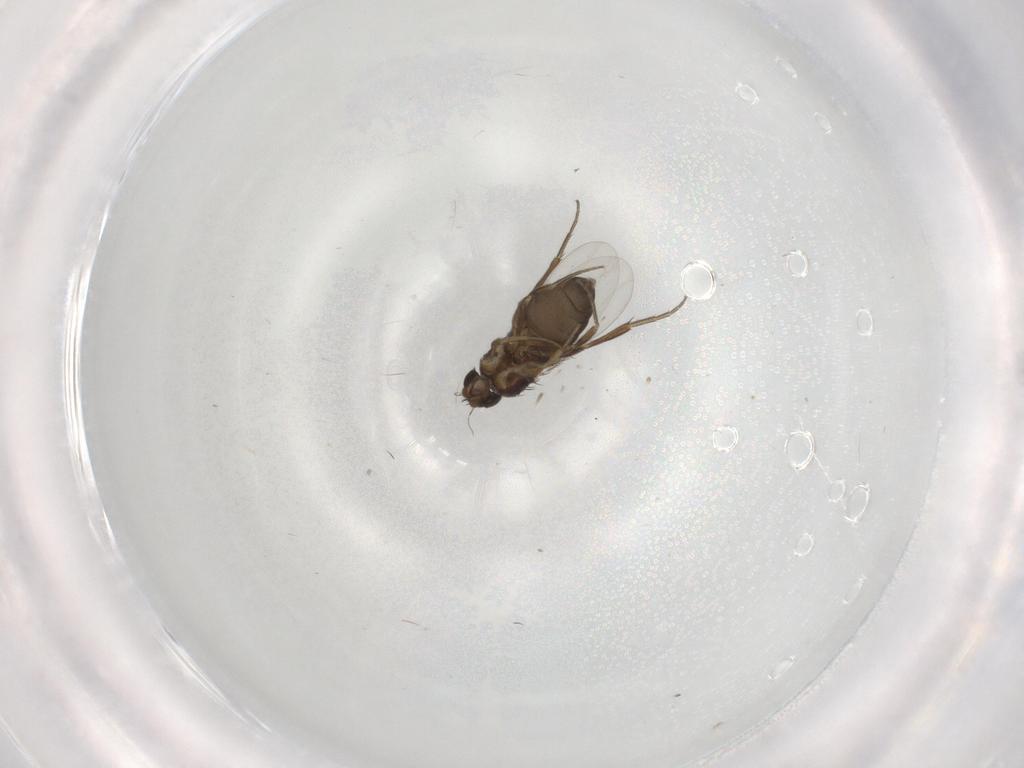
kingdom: Animalia
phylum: Arthropoda
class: Insecta
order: Diptera
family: Phoridae
